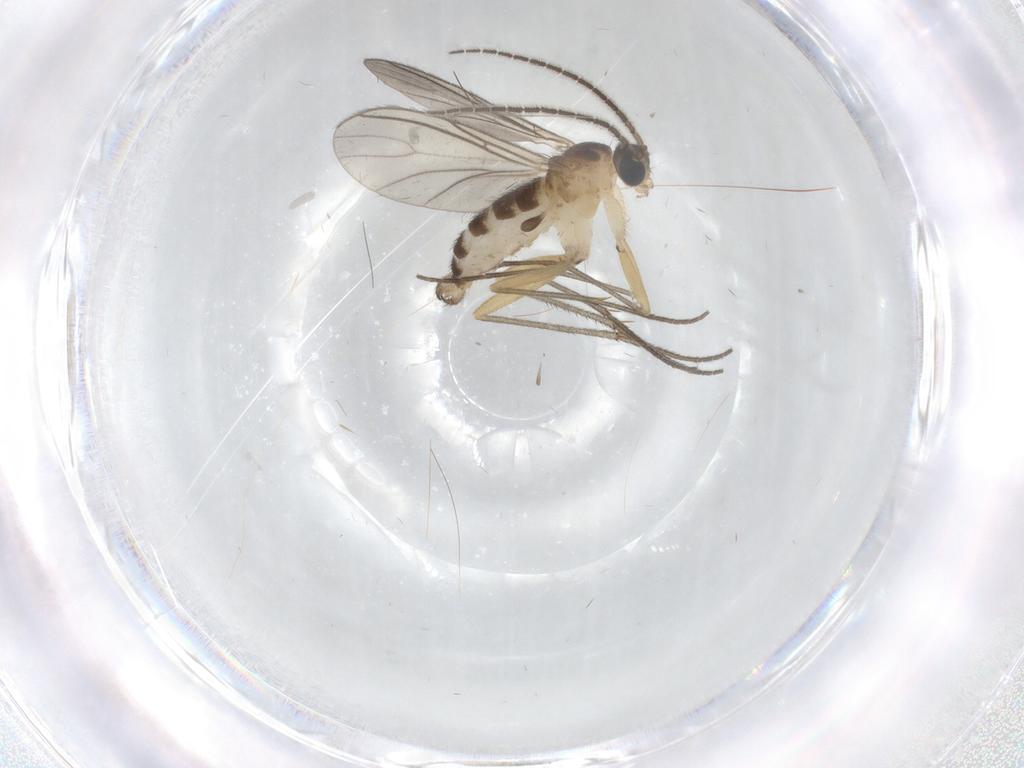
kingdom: Animalia
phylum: Arthropoda
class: Insecta
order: Diptera
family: Sciaridae
